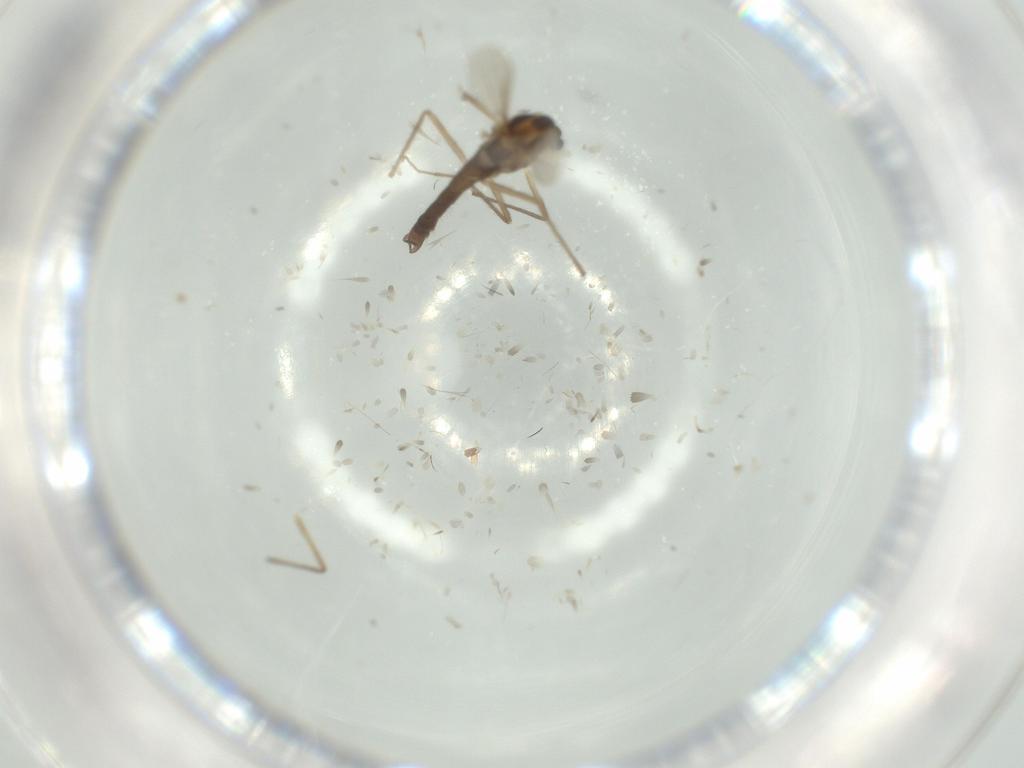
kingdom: Animalia
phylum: Arthropoda
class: Insecta
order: Diptera
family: Chironomidae
